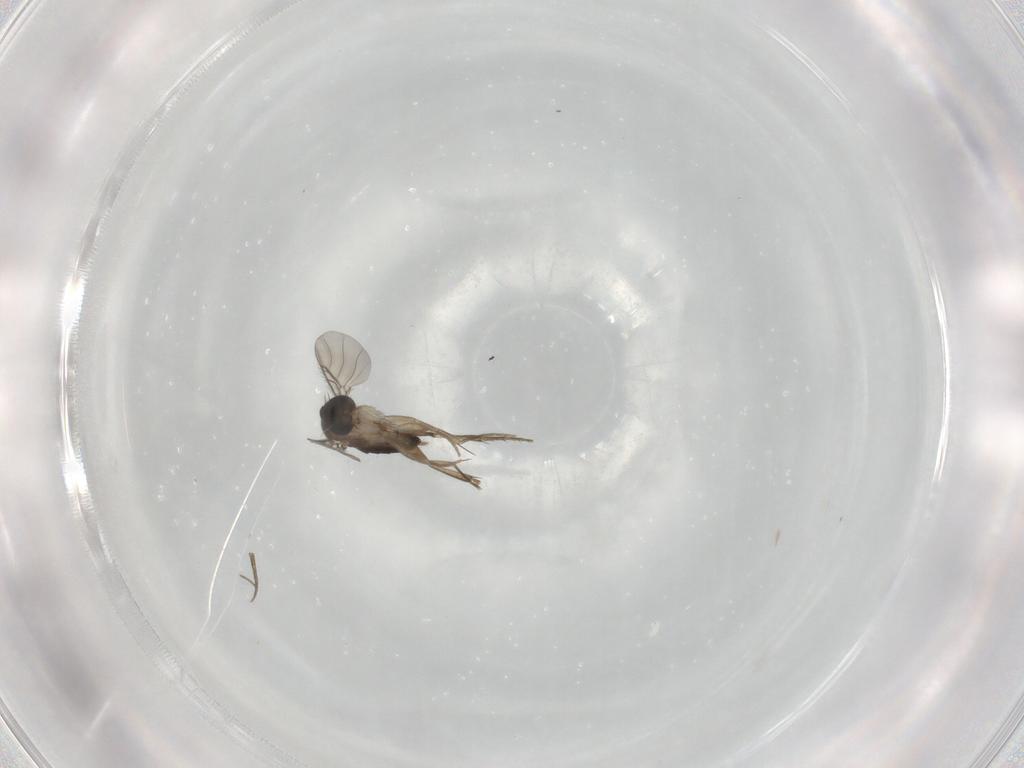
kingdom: Animalia
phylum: Arthropoda
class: Insecta
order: Diptera
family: Phoridae
